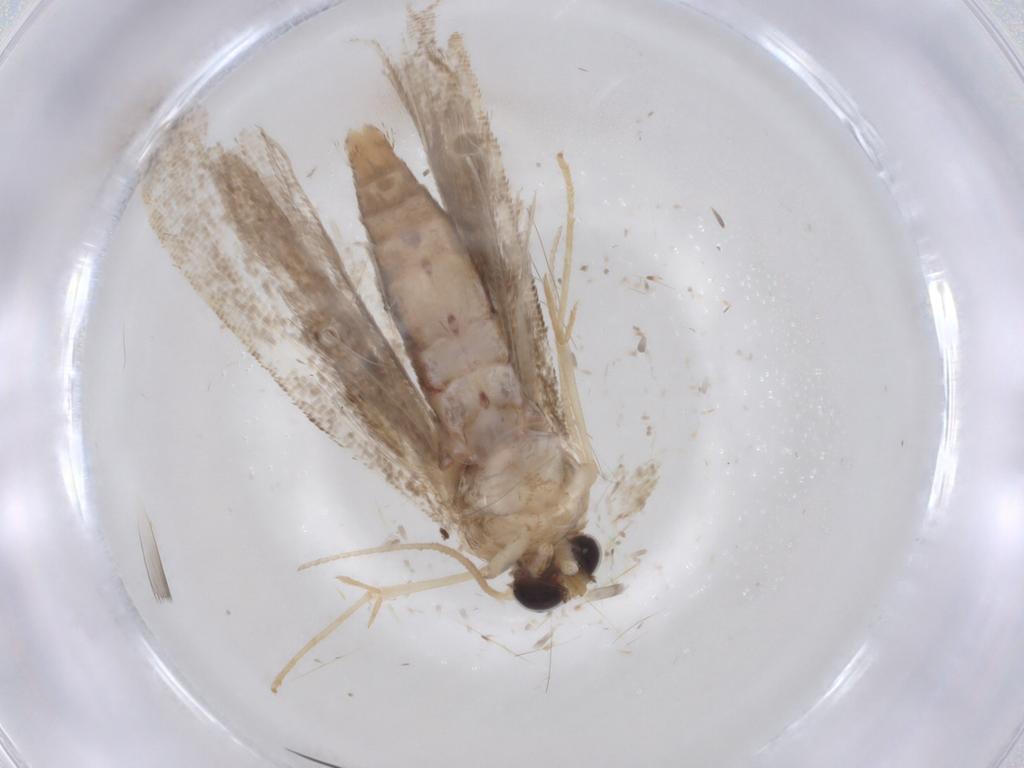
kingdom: Animalia
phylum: Arthropoda
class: Insecta
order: Lepidoptera
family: Noctuidae
